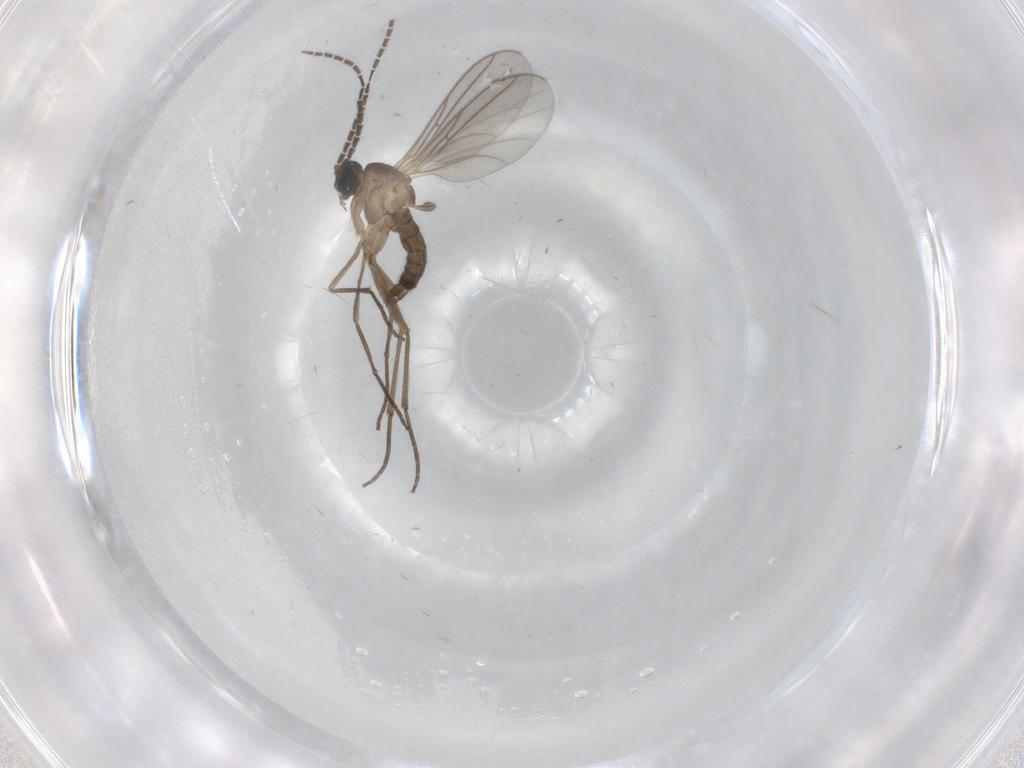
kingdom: Animalia
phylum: Arthropoda
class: Insecta
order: Diptera
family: Sciaridae
